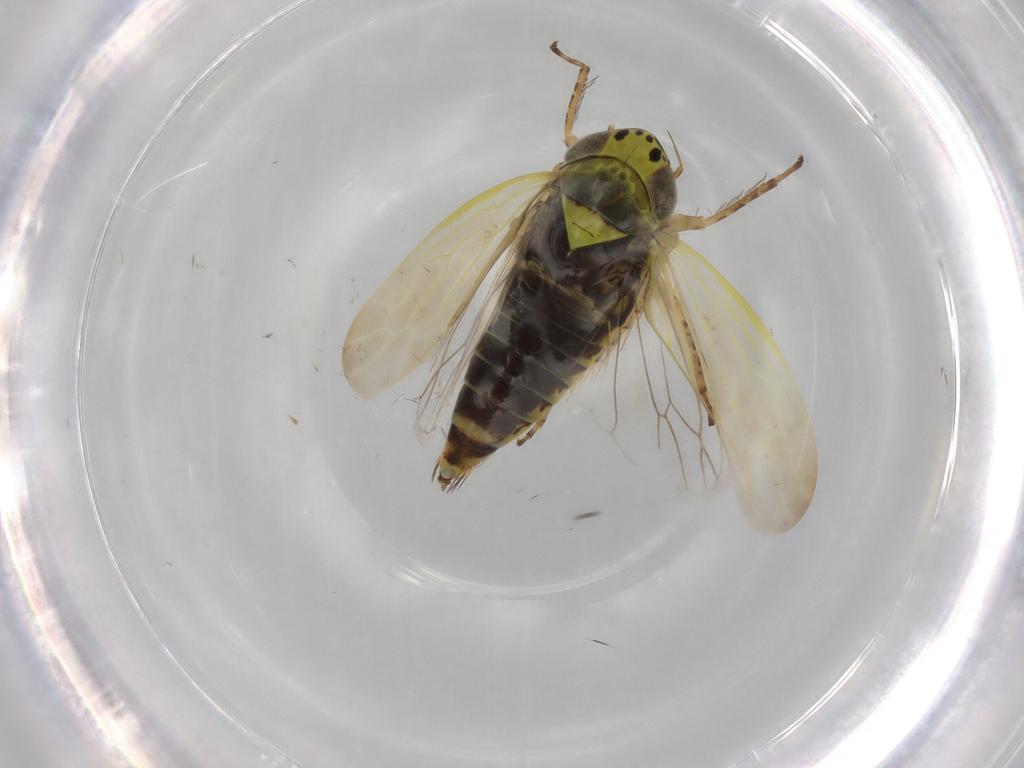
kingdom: Animalia
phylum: Arthropoda
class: Insecta
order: Hemiptera
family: Cicadellidae
